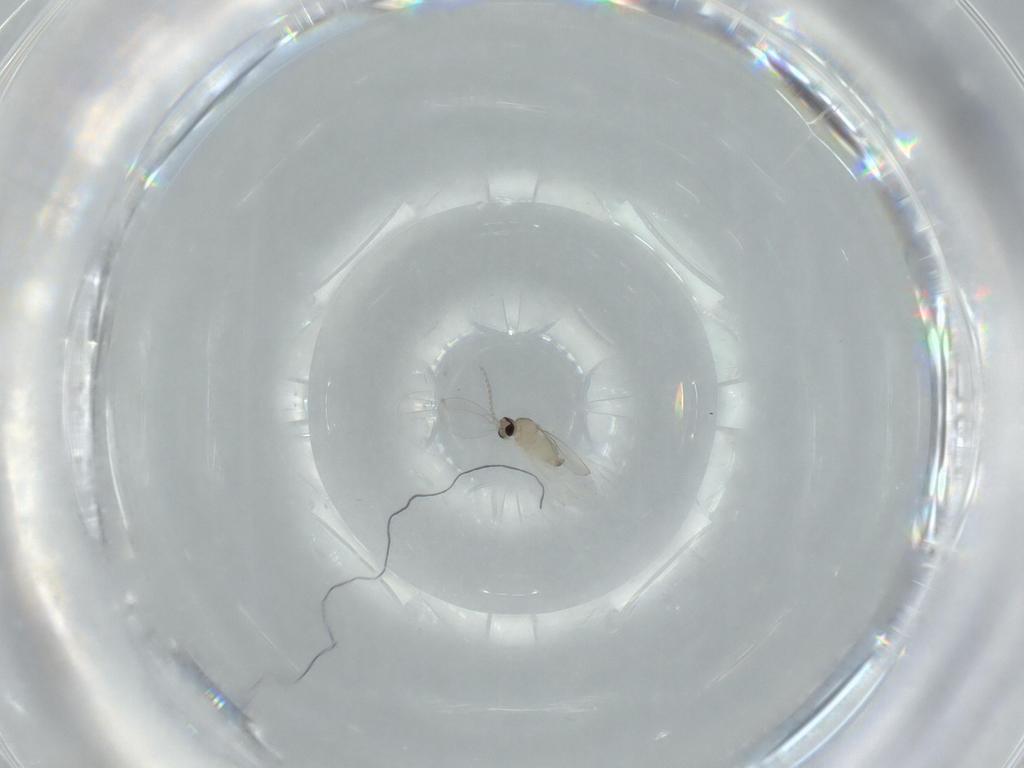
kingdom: Animalia
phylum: Arthropoda
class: Insecta
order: Diptera
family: Cecidomyiidae
